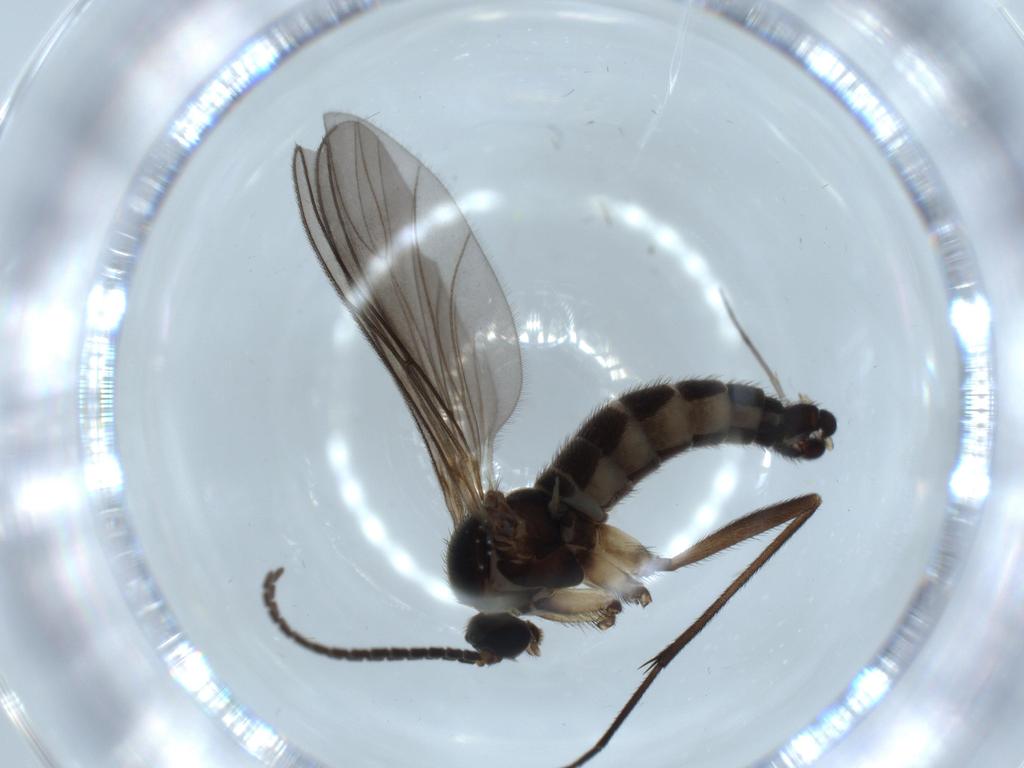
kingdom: Animalia
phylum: Arthropoda
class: Insecta
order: Diptera
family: Sciaridae
